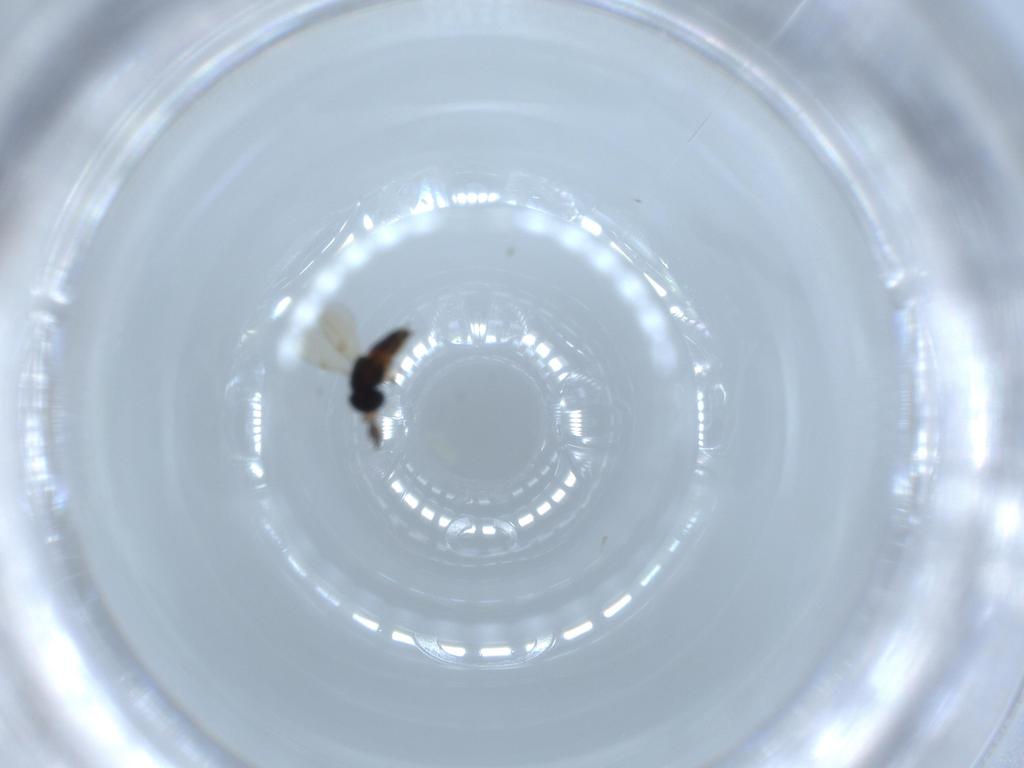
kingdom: Animalia
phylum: Arthropoda
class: Insecta
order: Hymenoptera
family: Scelionidae
